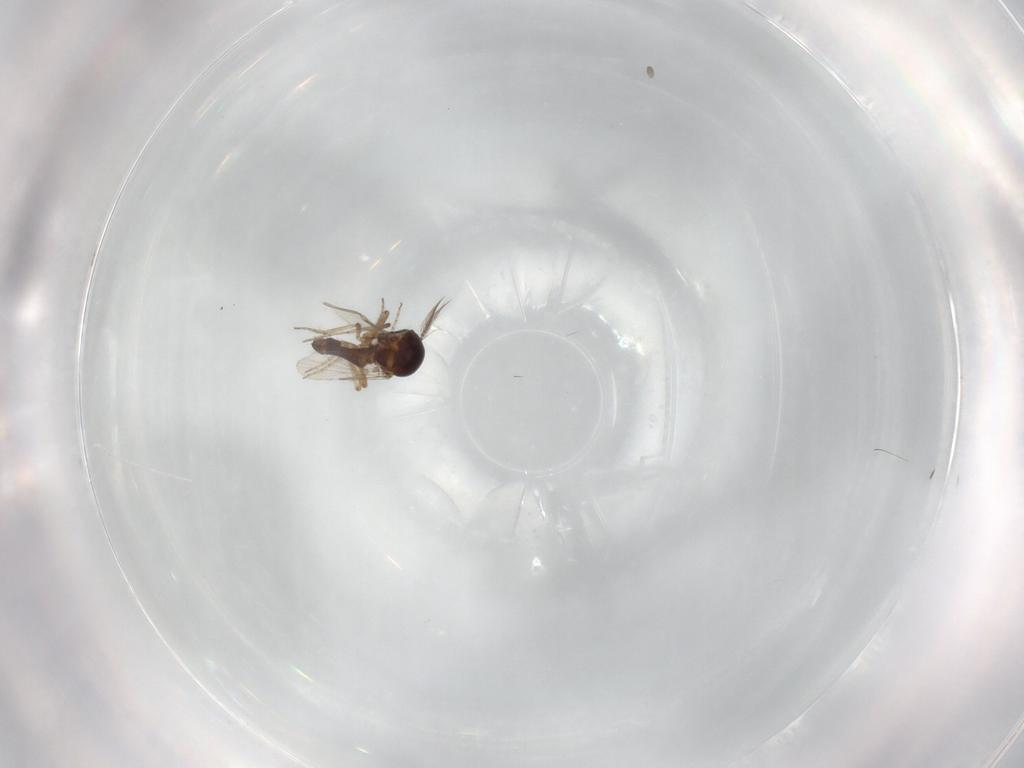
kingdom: Animalia
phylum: Arthropoda
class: Insecta
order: Diptera
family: Ceratopogonidae
